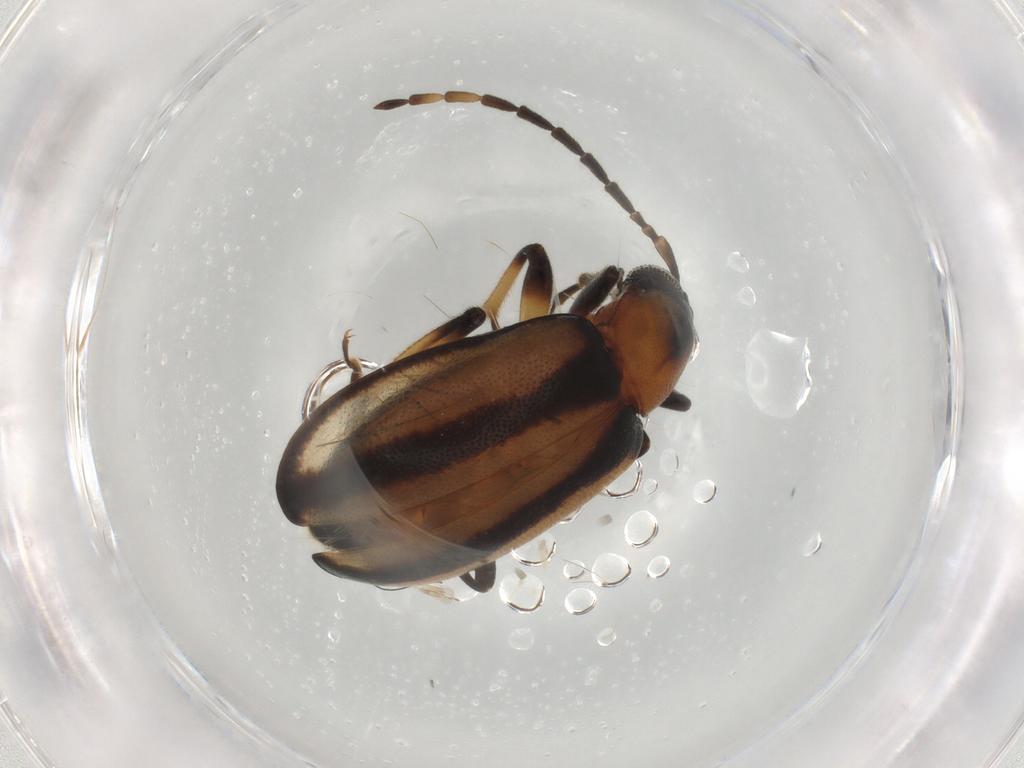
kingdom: Animalia
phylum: Arthropoda
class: Insecta
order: Coleoptera
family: Chrysomelidae
